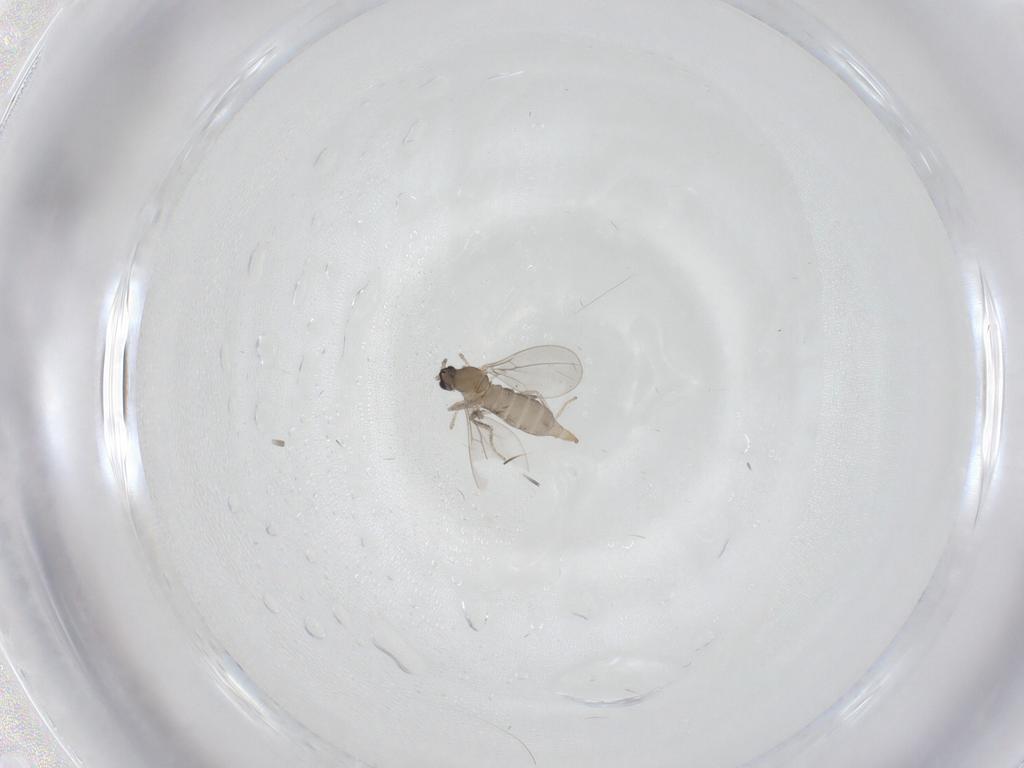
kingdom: Animalia
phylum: Arthropoda
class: Insecta
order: Diptera
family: Cecidomyiidae
